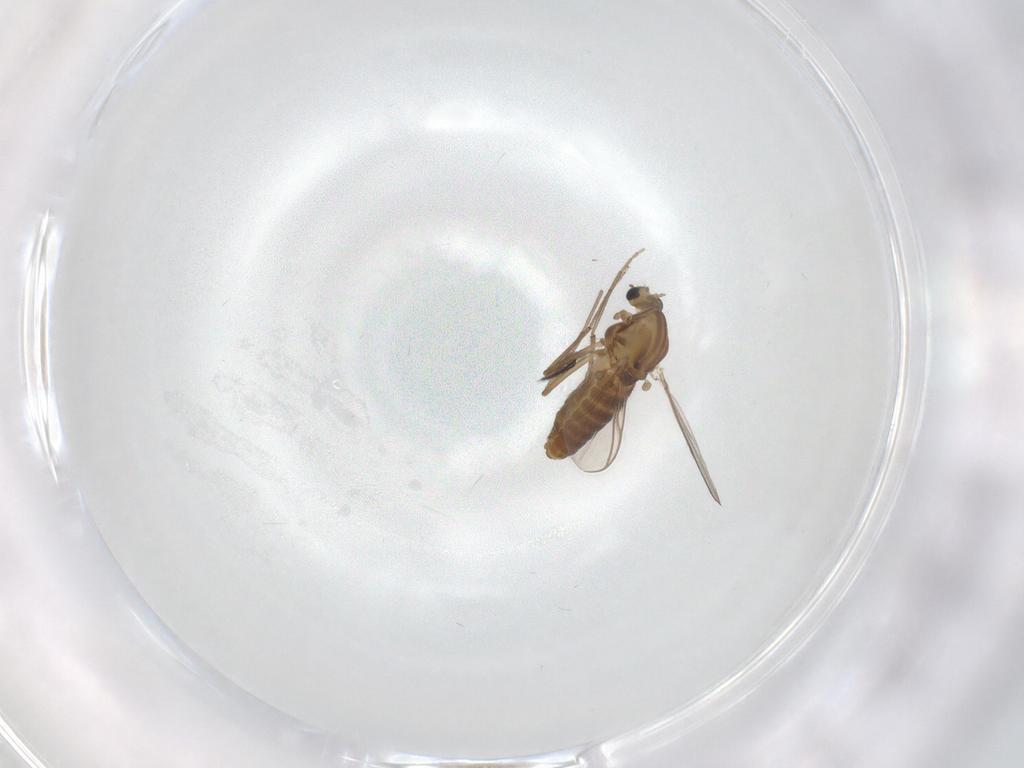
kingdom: Animalia
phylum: Arthropoda
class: Insecta
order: Diptera
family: Chironomidae
